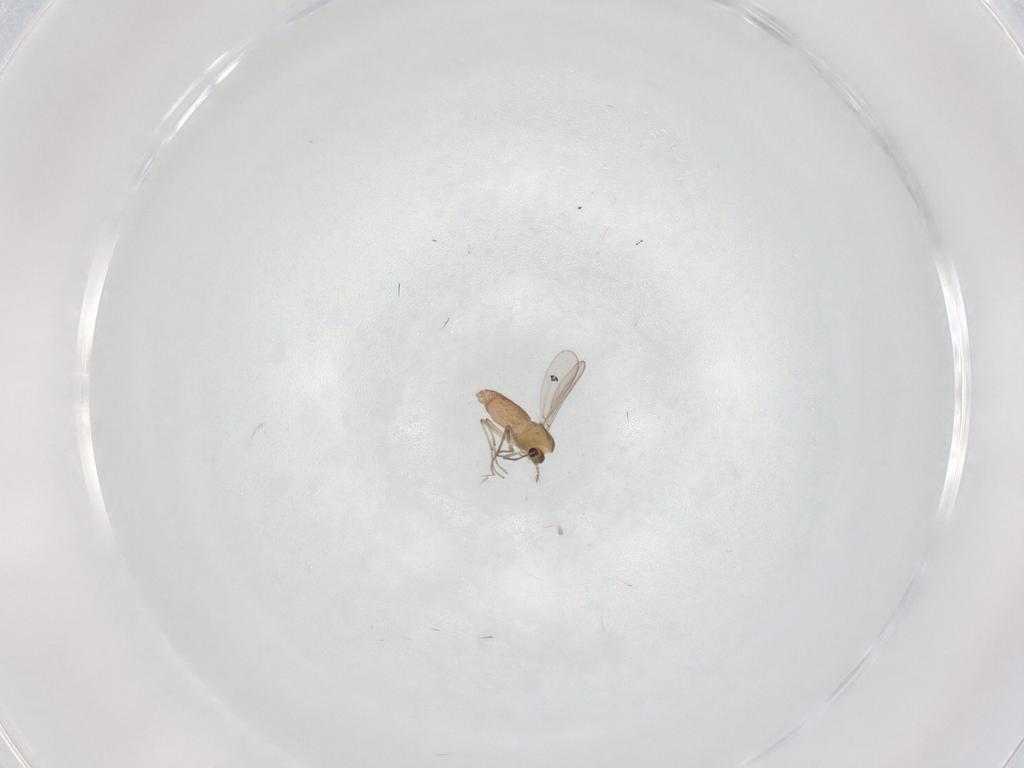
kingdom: Animalia
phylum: Arthropoda
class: Insecta
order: Diptera
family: Chironomidae
